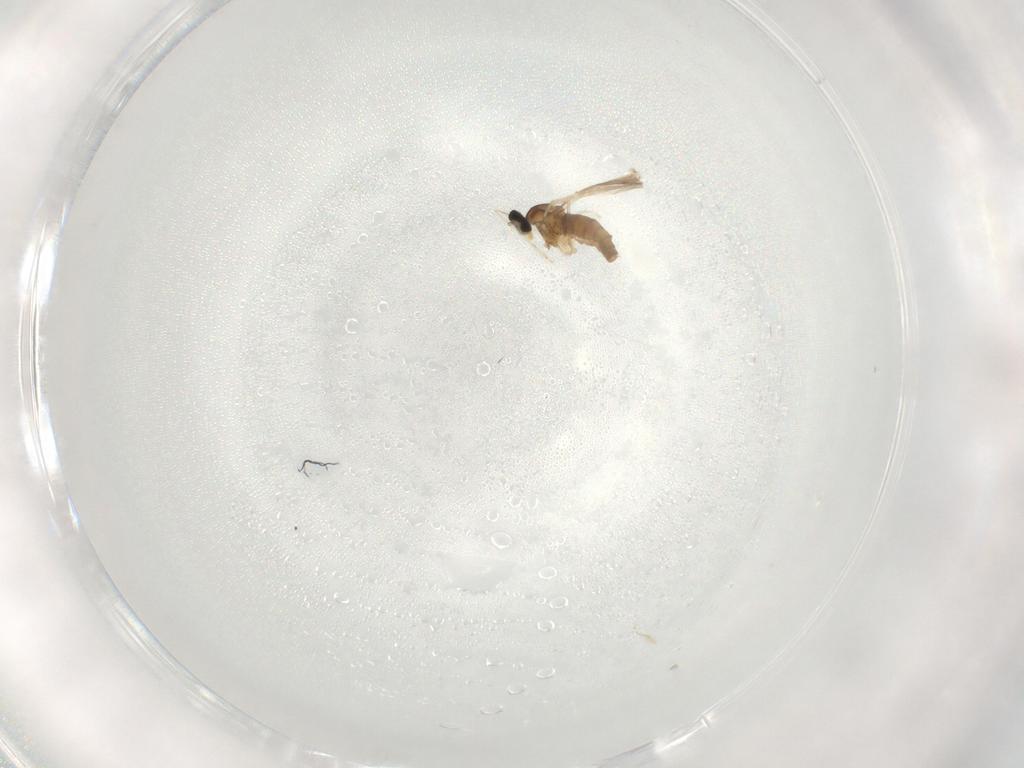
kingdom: Animalia
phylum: Arthropoda
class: Insecta
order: Diptera
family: Cecidomyiidae
